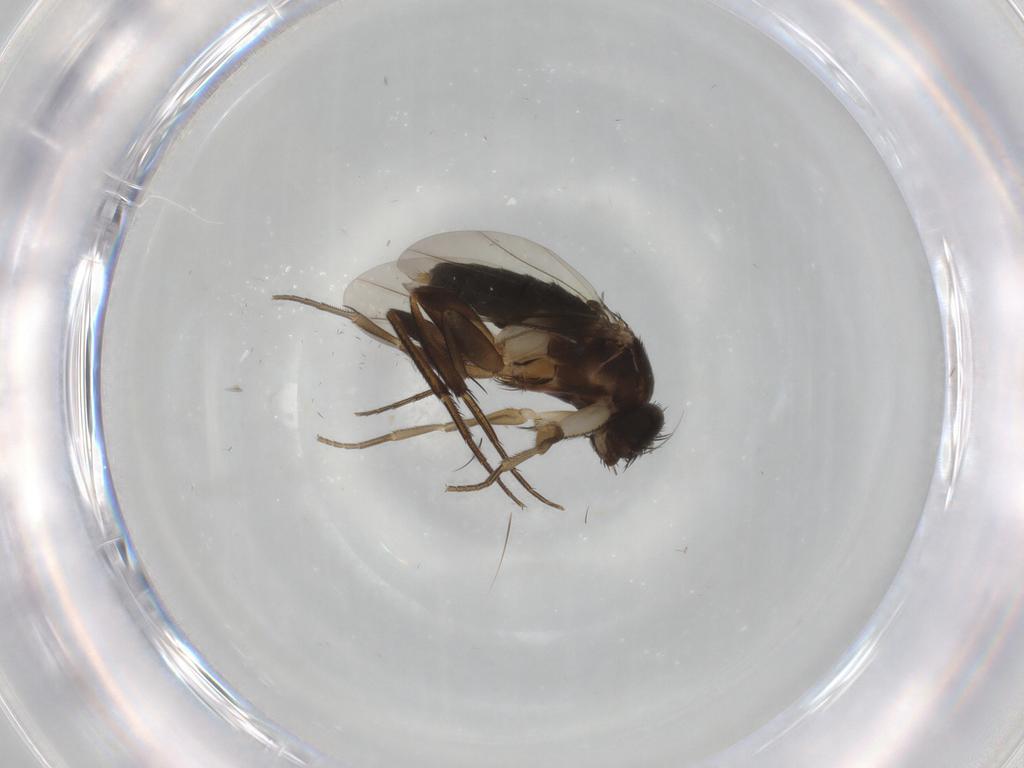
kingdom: Animalia
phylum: Arthropoda
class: Insecta
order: Diptera
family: Phoridae
